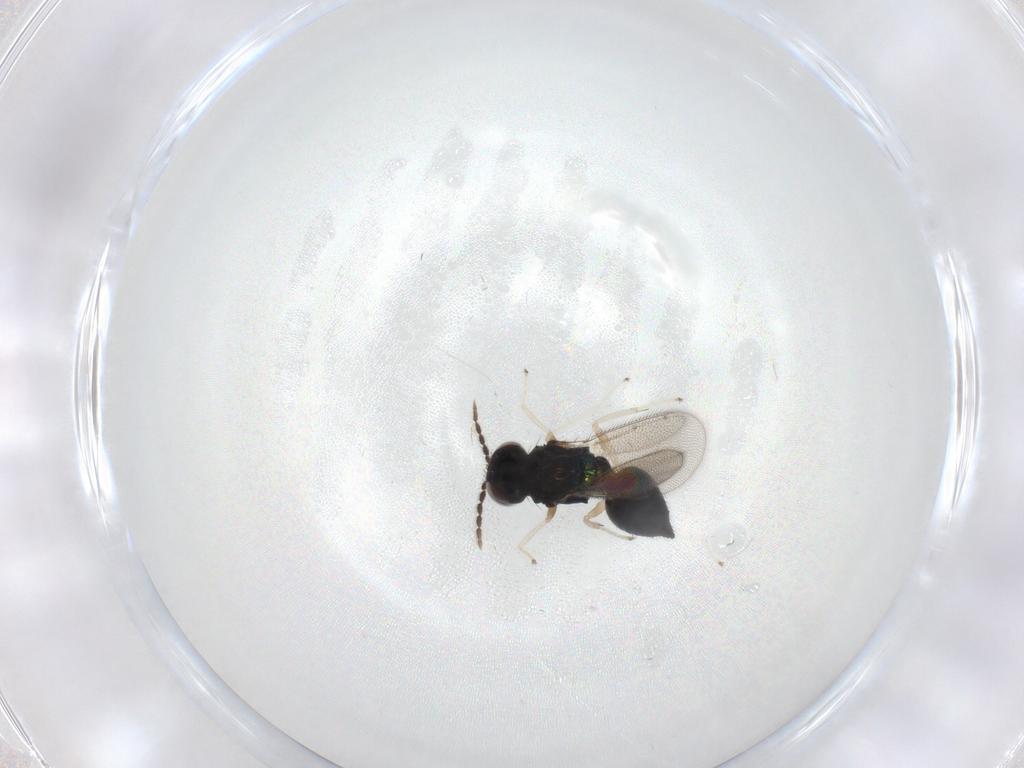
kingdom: Animalia
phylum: Arthropoda
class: Insecta
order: Hymenoptera
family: Eulophidae
